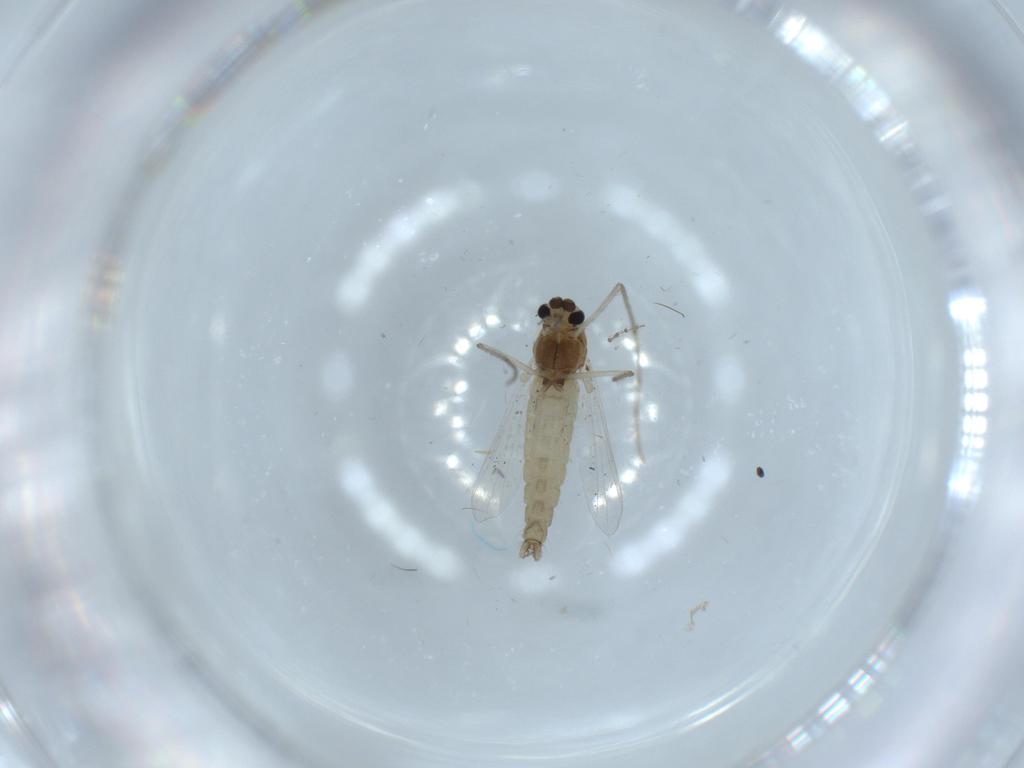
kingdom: Animalia
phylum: Arthropoda
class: Insecta
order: Diptera
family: Chironomidae
